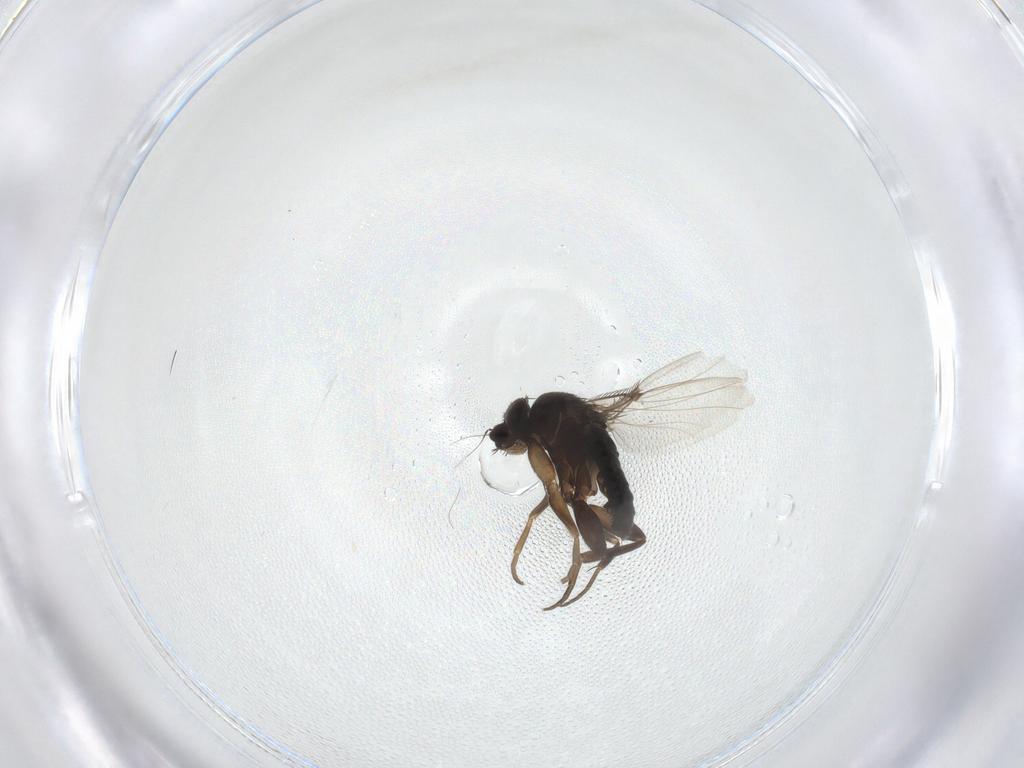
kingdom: Animalia
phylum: Arthropoda
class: Insecta
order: Diptera
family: Phoridae
